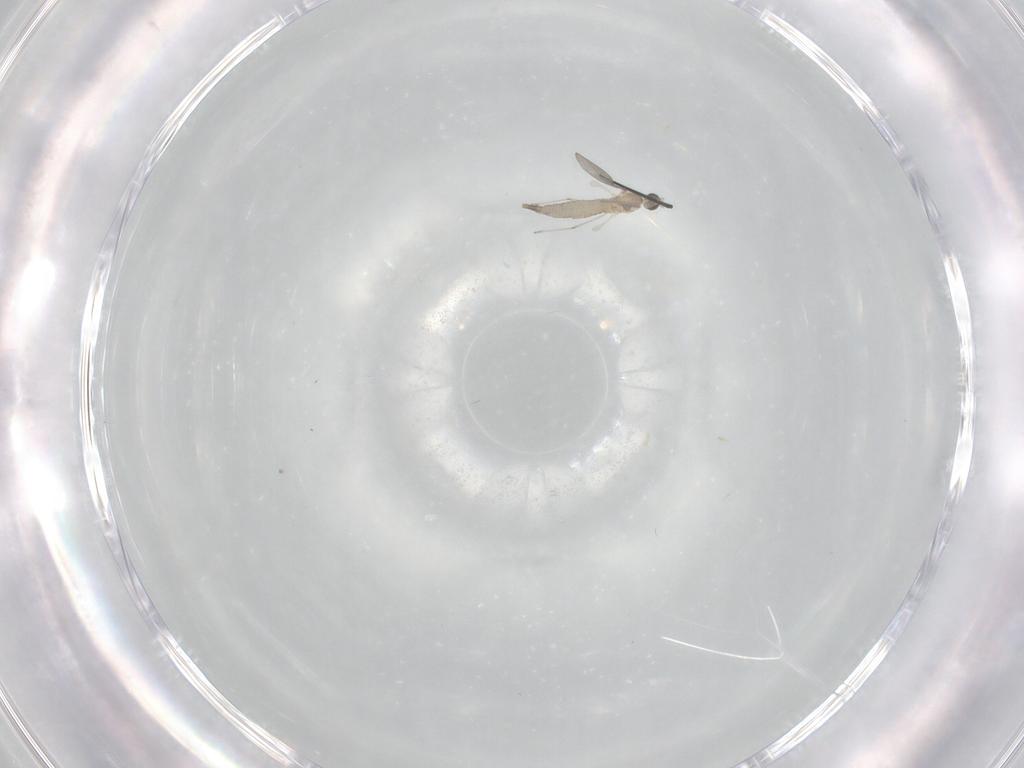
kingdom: Animalia
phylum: Arthropoda
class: Insecta
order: Diptera
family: Cecidomyiidae
